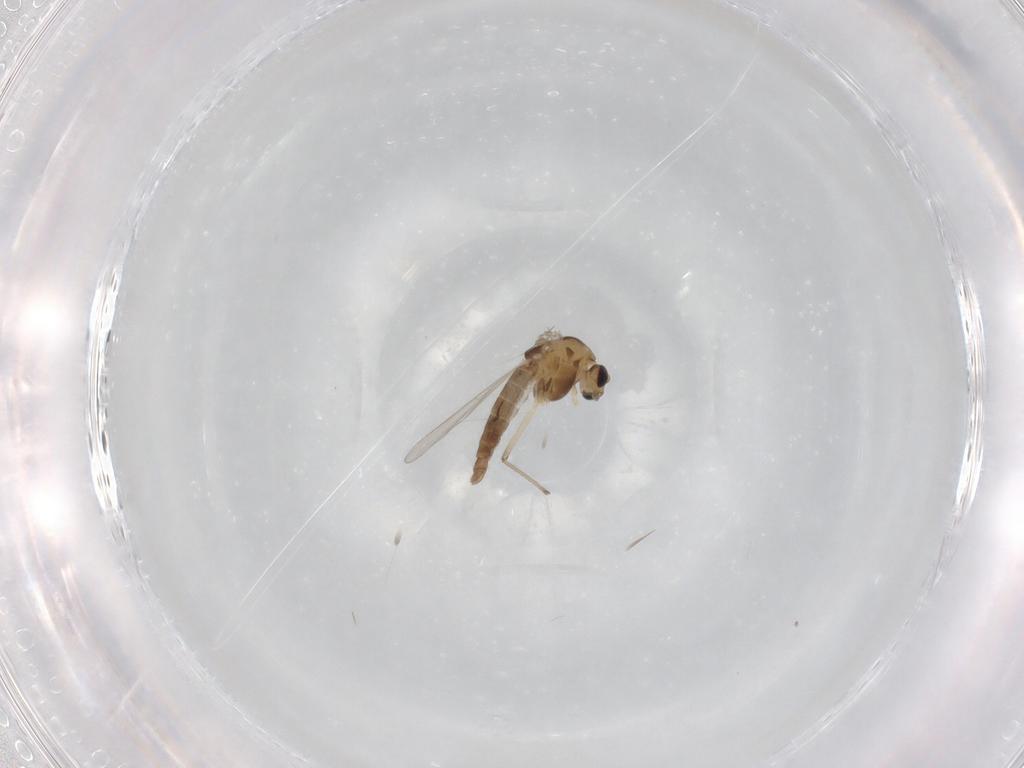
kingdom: Animalia
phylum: Arthropoda
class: Insecta
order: Diptera
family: Chironomidae
